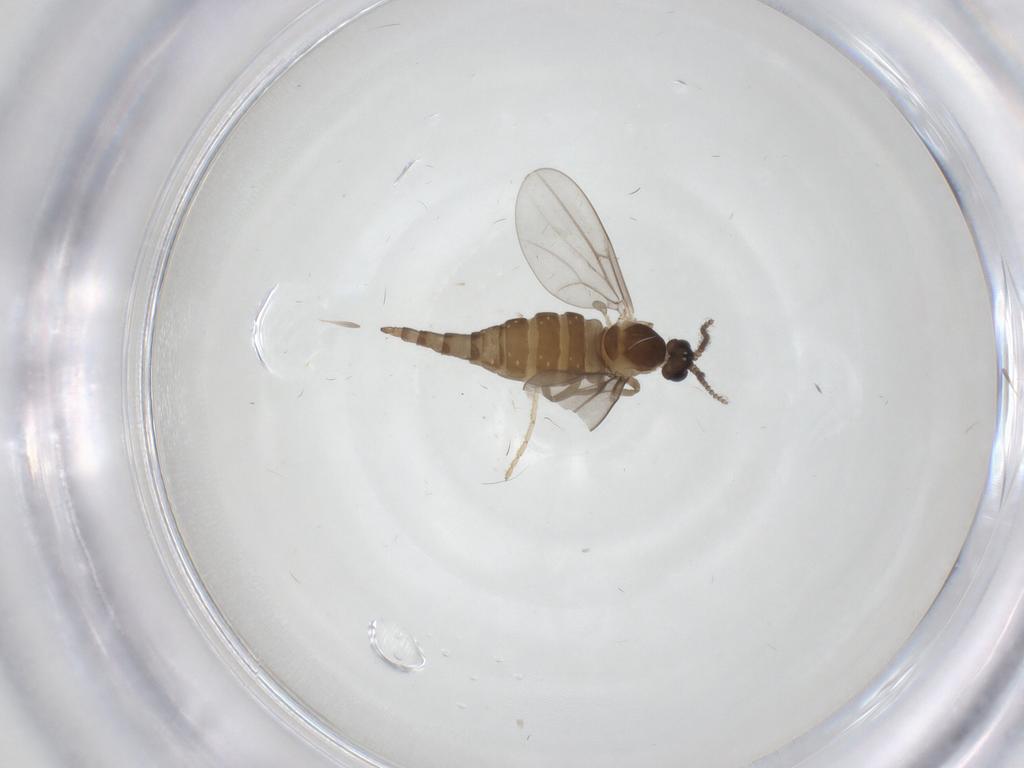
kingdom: Animalia
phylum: Arthropoda
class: Insecta
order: Diptera
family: Cecidomyiidae
